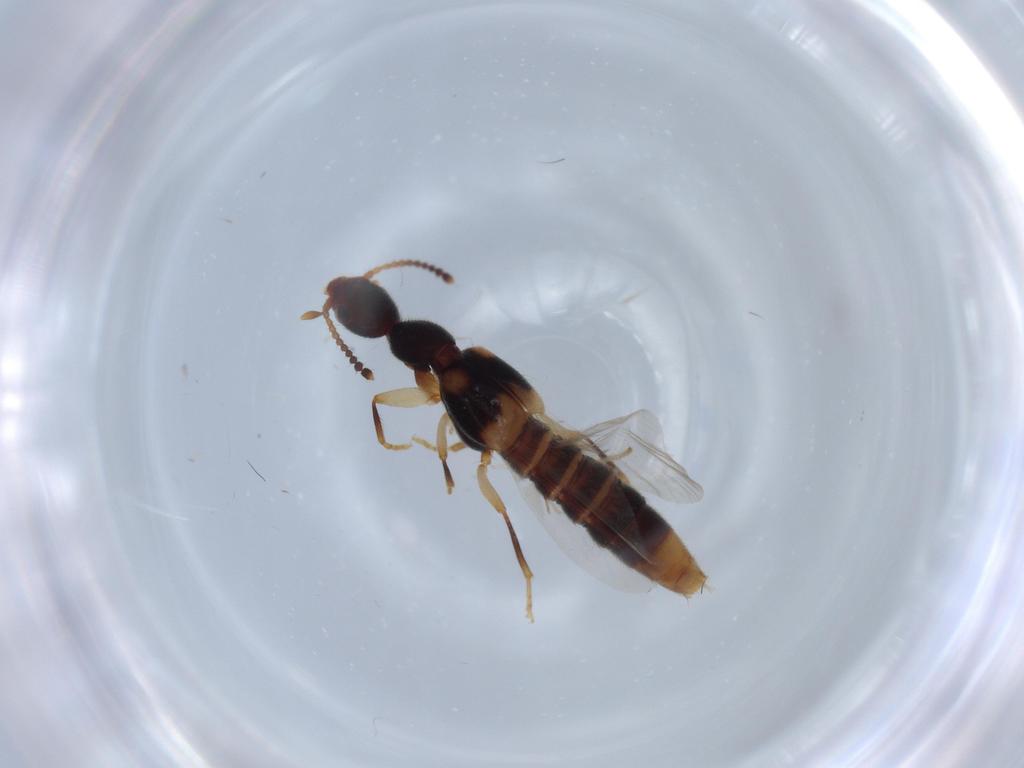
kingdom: Animalia
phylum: Arthropoda
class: Insecta
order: Coleoptera
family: Staphylinidae
